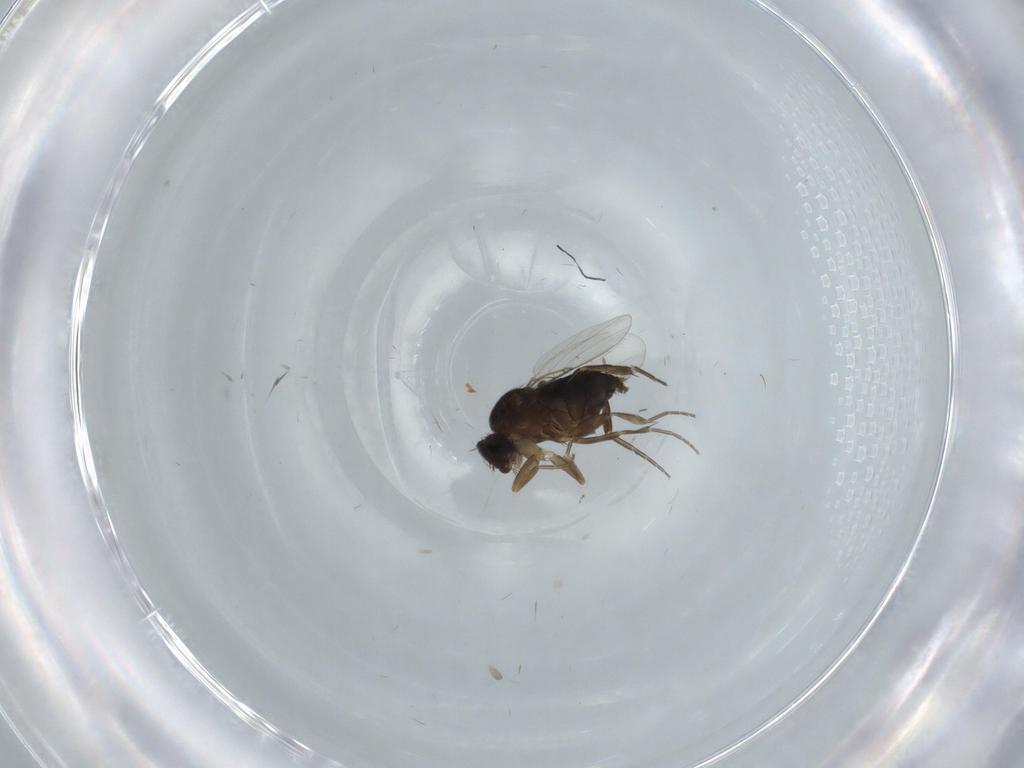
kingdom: Animalia
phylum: Arthropoda
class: Insecta
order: Diptera
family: Phoridae
